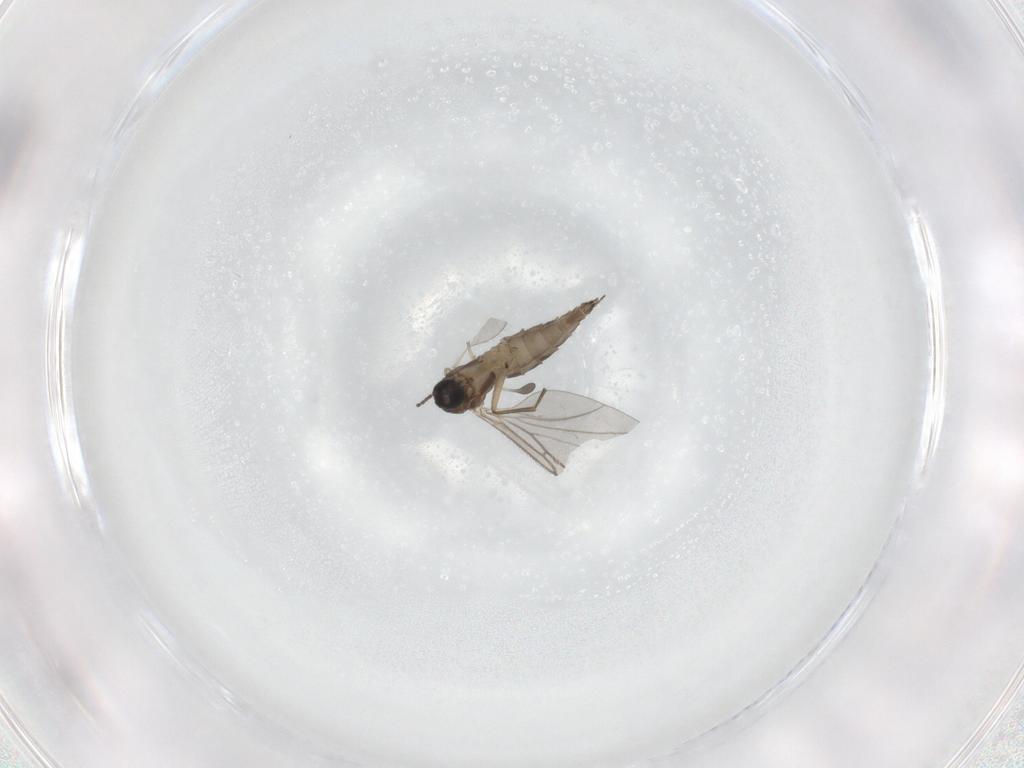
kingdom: Animalia
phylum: Arthropoda
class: Insecta
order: Diptera
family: Sciaridae
